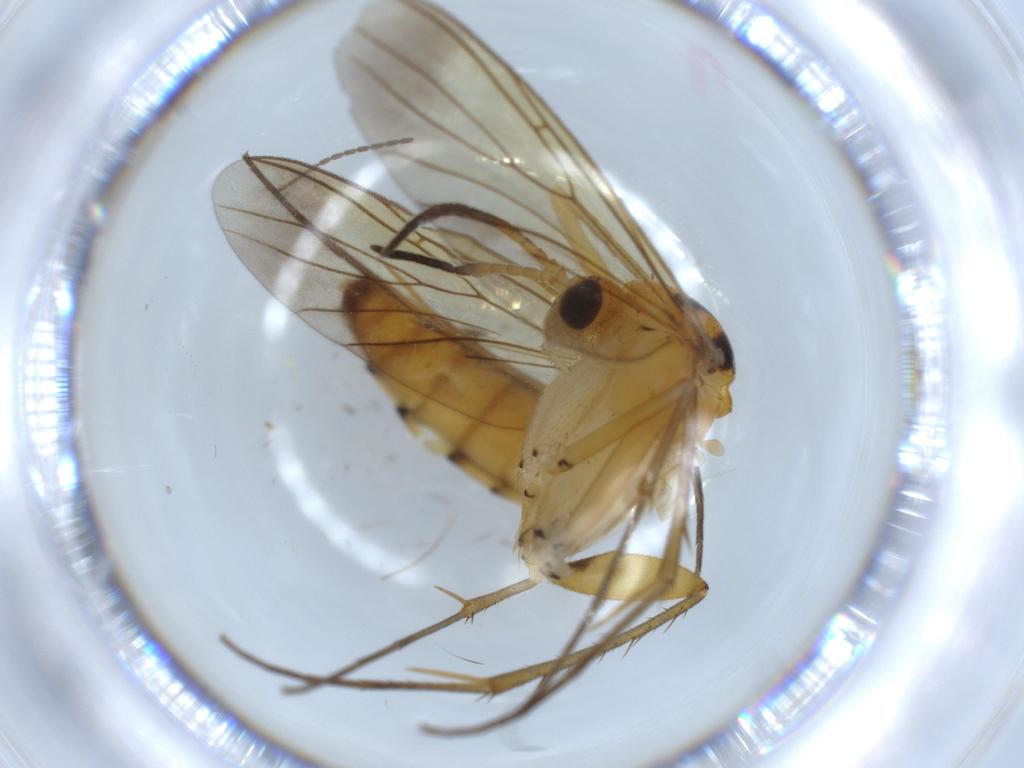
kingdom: Animalia
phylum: Arthropoda
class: Insecta
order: Diptera
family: Mycetophilidae
